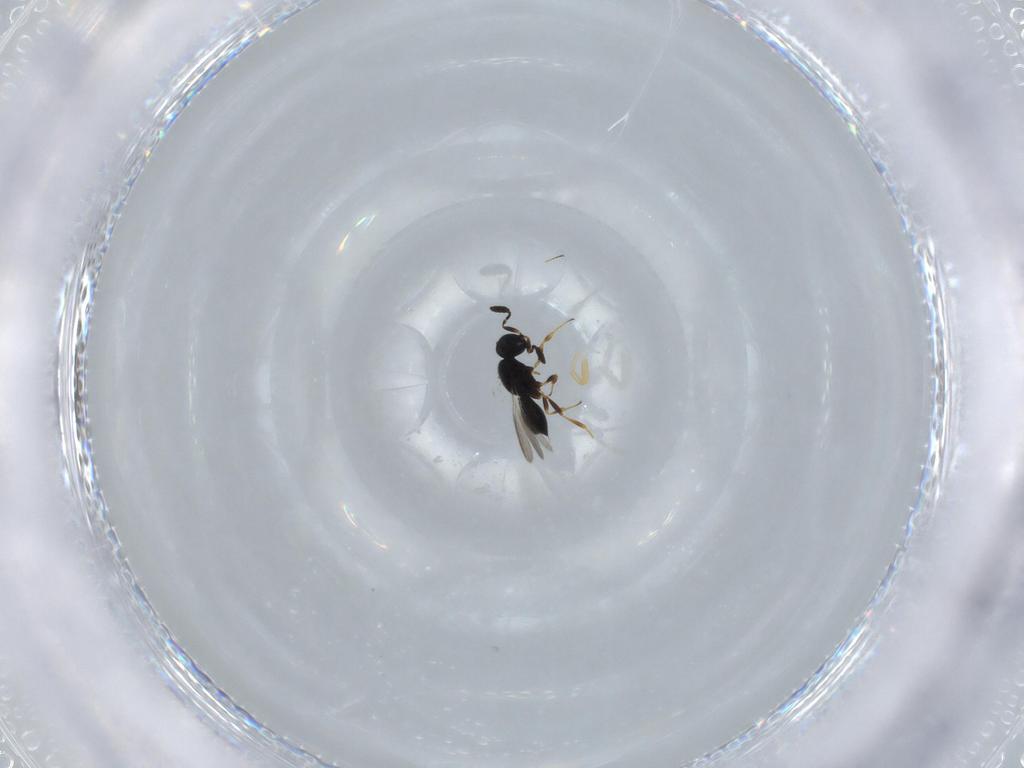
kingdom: Animalia
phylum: Arthropoda
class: Insecta
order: Hymenoptera
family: Scelionidae
